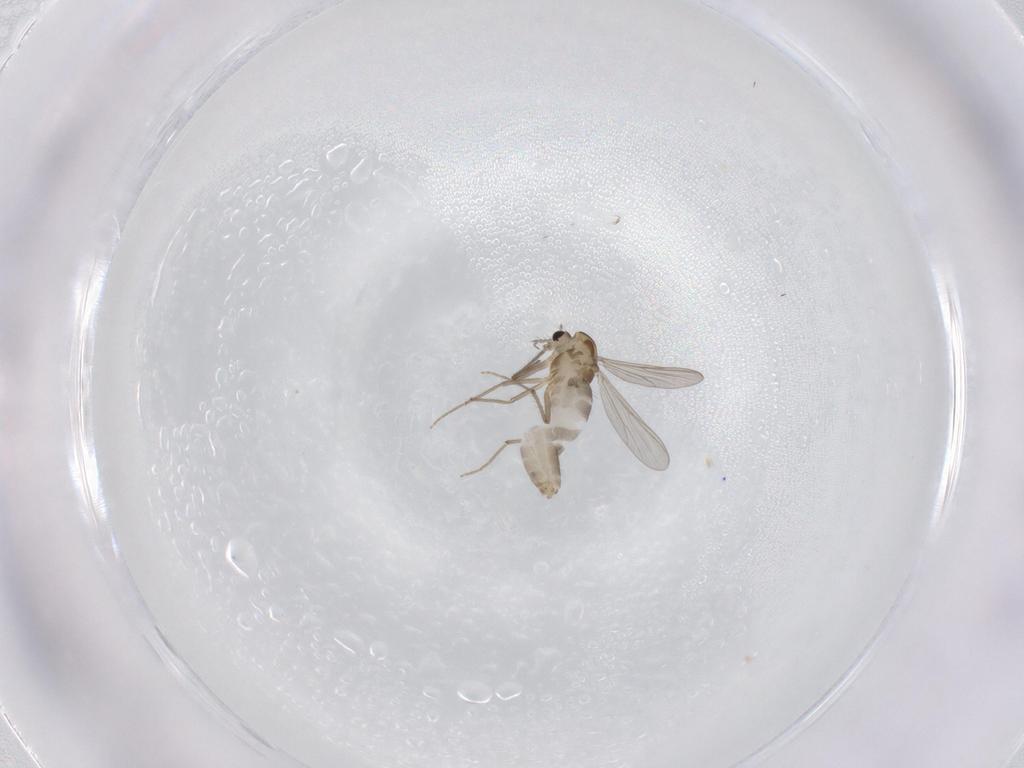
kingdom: Animalia
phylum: Arthropoda
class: Insecta
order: Diptera
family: Chironomidae
